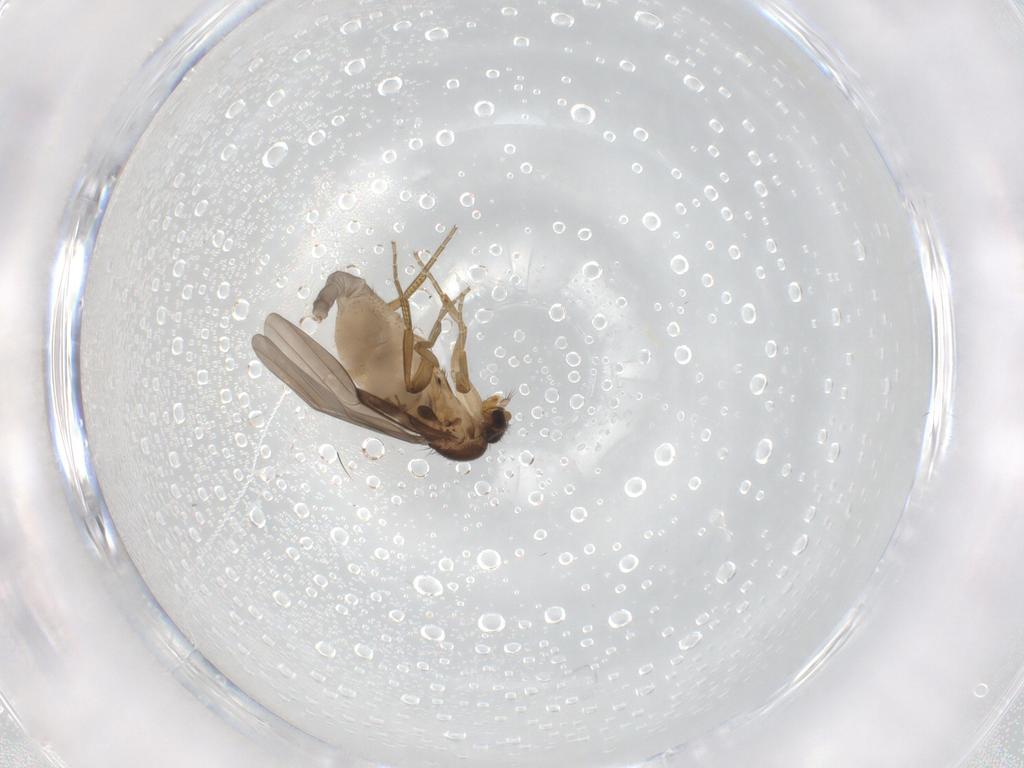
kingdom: Animalia
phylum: Arthropoda
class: Insecta
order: Diptera
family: Phoridae
